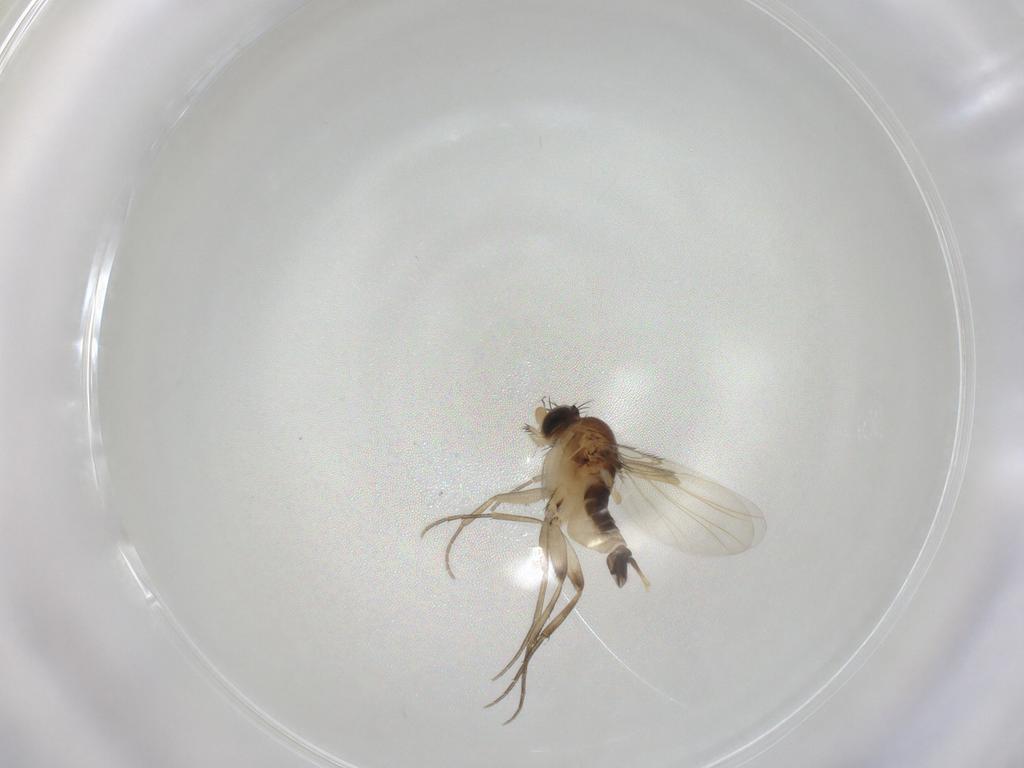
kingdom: Animalia
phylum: Arthropoda
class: Insecta
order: Diptera
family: Phoridae
